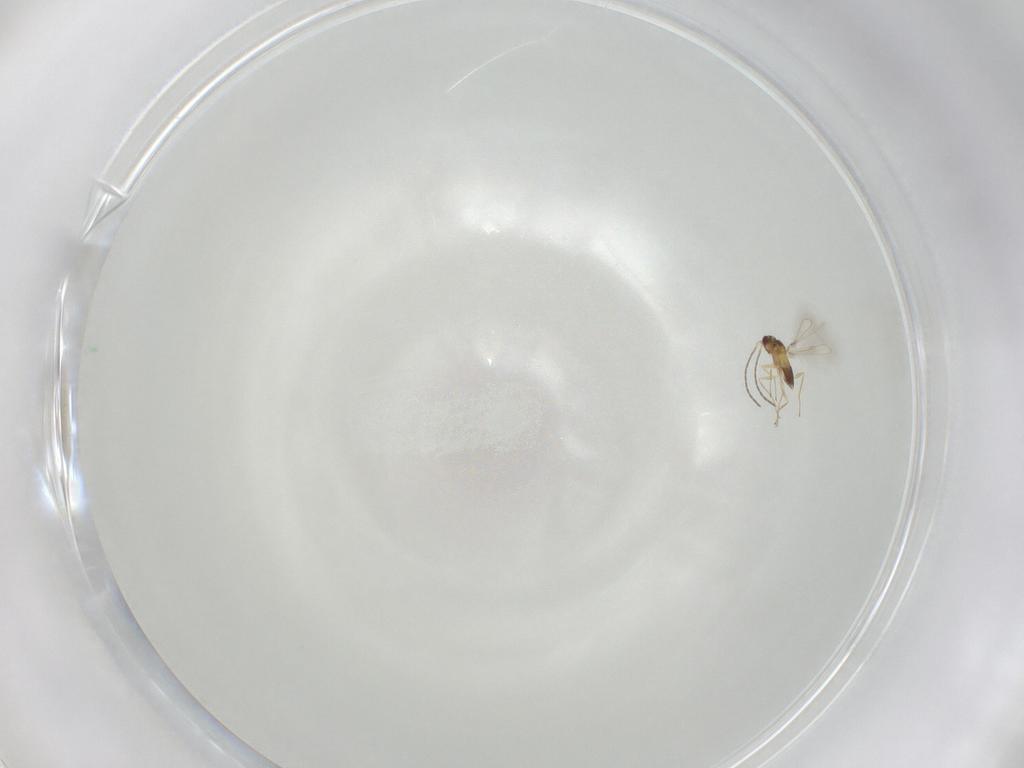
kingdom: Animalia
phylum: Arthropoda
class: Insecta
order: Hymenoptera
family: Mymaridae
